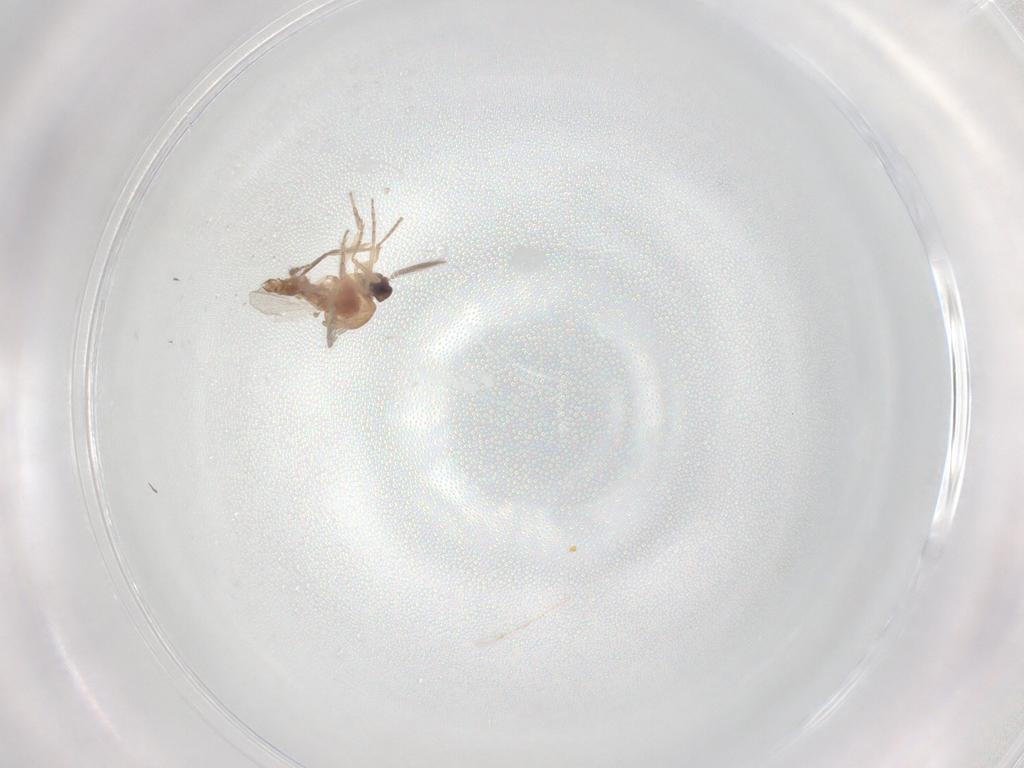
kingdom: Animalia
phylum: Arthropoda
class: Insecta
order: Diptera
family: Ceratopogonidae
